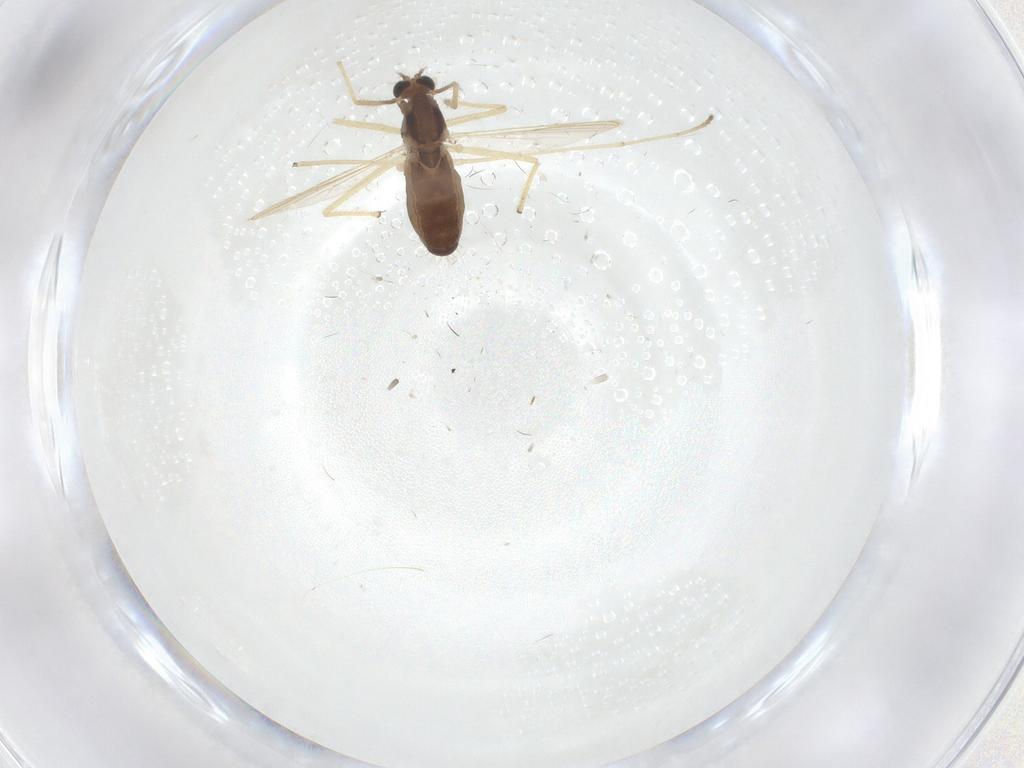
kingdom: Animalia
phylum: Arthropoda
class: Insecta
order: Diptera
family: Chironomidae
